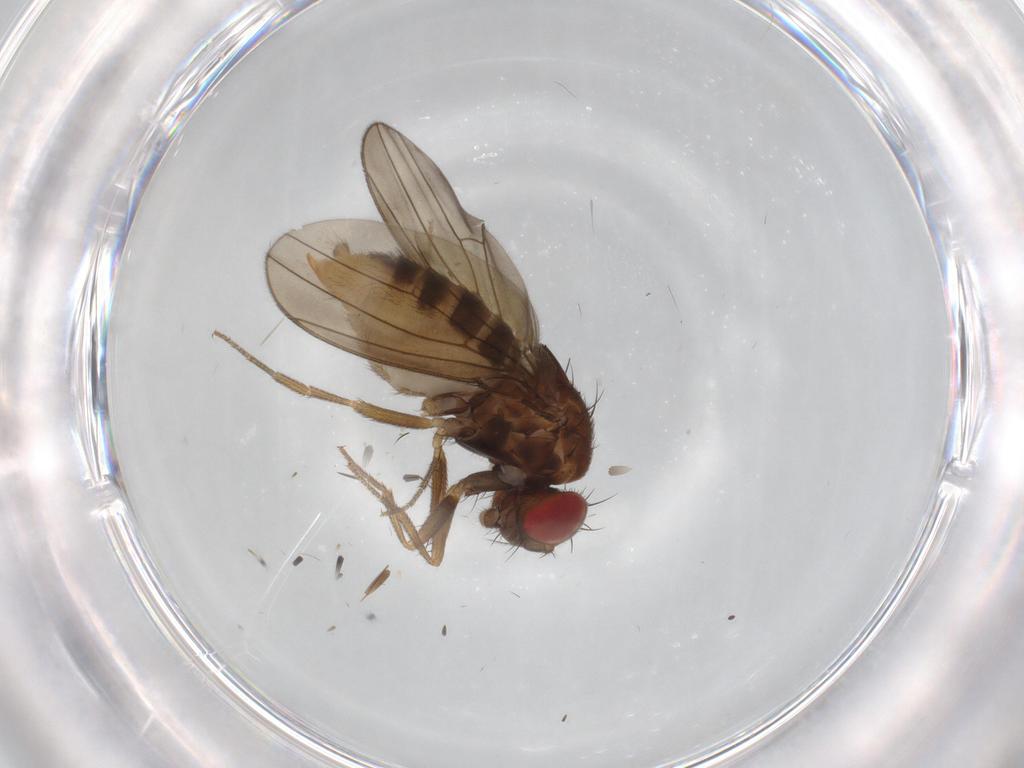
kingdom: Animalia
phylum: Arthropoda
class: Insecta
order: Diptera
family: Drosophilidae
